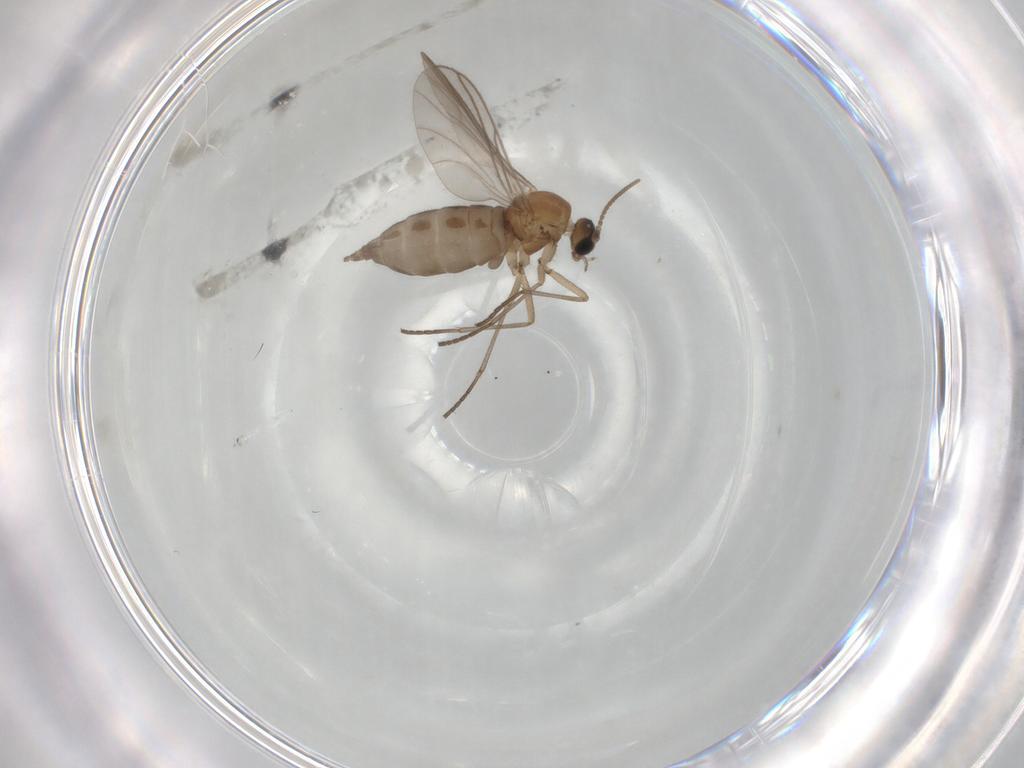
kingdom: Animalia
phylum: Arthropoda
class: Insecta
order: Diptera
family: Sciaridae
